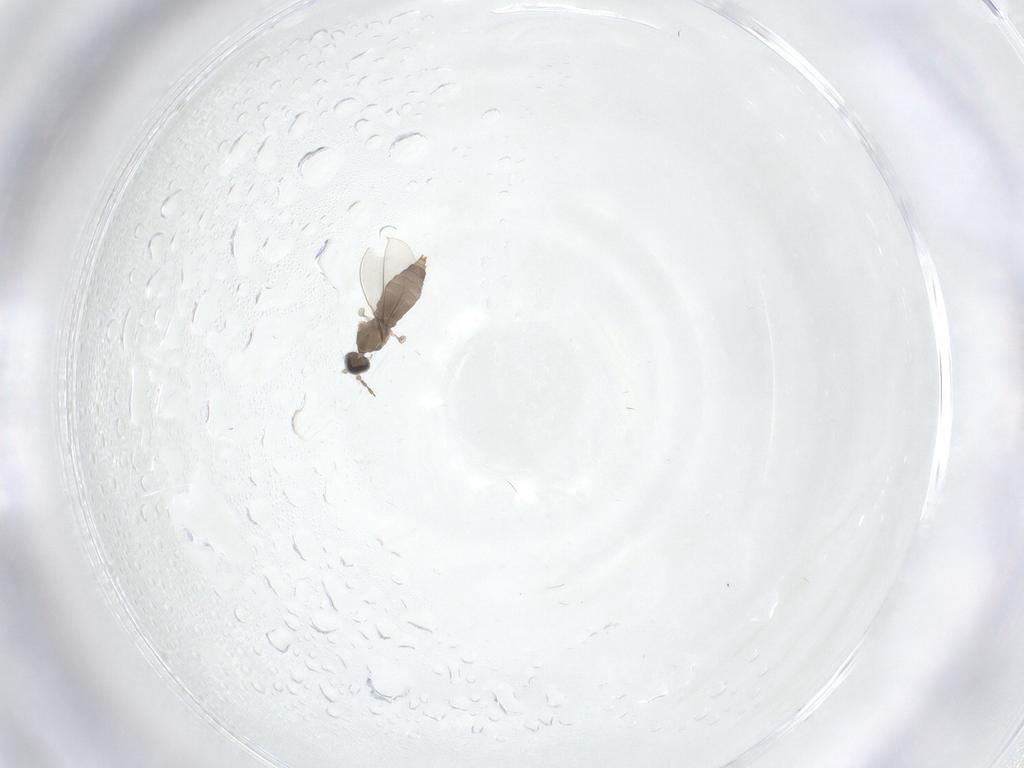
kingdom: Animalia
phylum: Arthropoda
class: Insecta
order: Diptera
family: Cecidomyiidae
